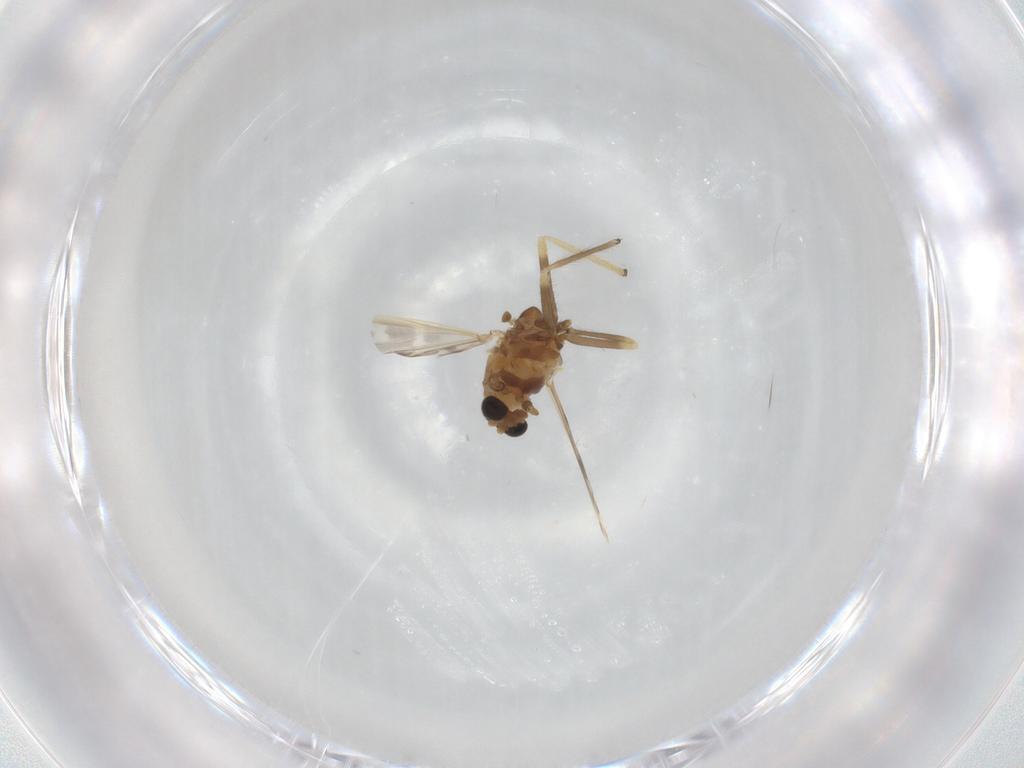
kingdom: Animalia
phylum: Arthropoda
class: Insecta
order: Diptera
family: Chironomidae
